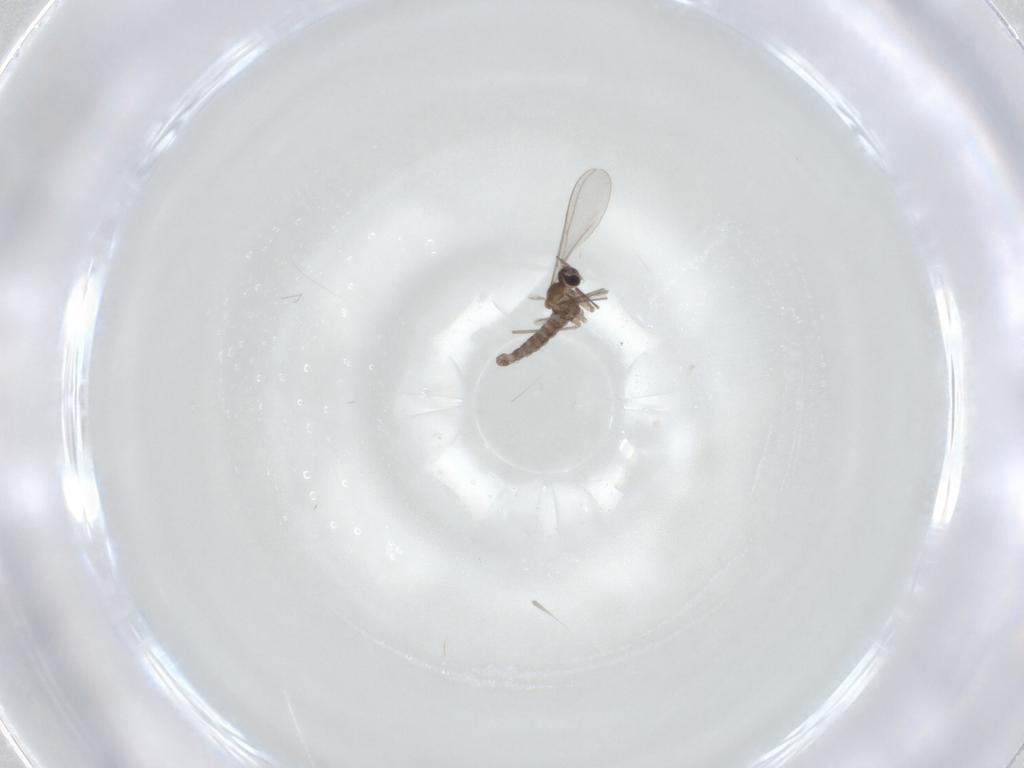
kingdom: Animalia
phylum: Arthropoda
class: Insecta
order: Diptera
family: Cecidomyiidae
